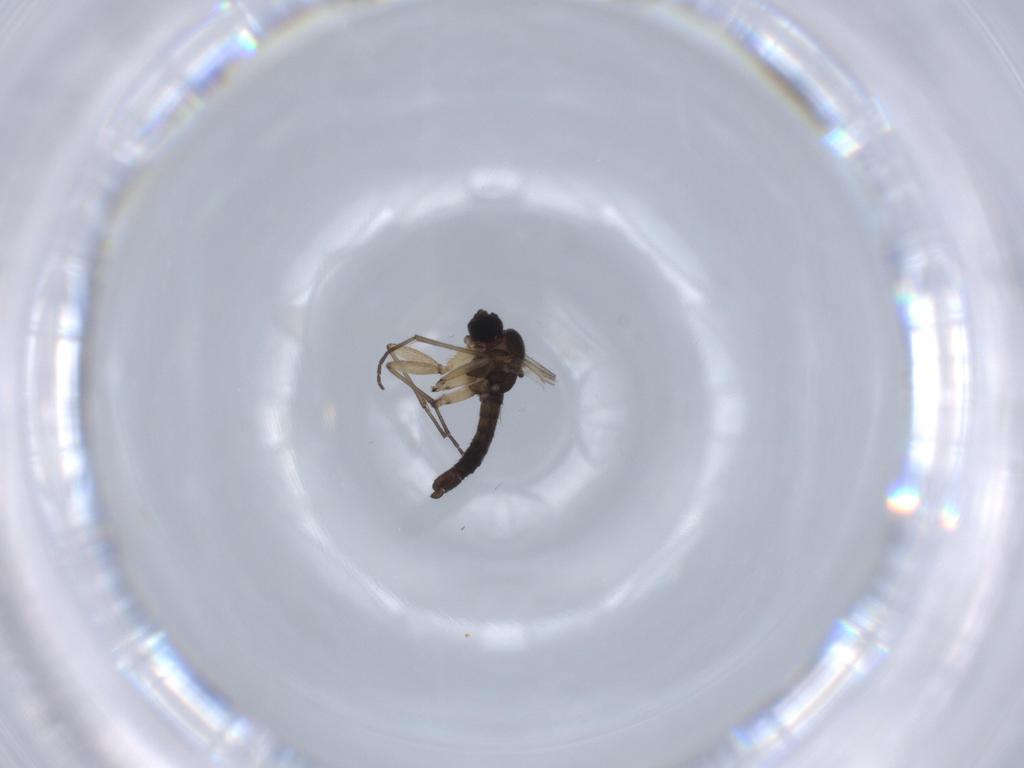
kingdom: Animalia
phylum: Arthropoda
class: Insecta
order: Diptera
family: Sciaridae
